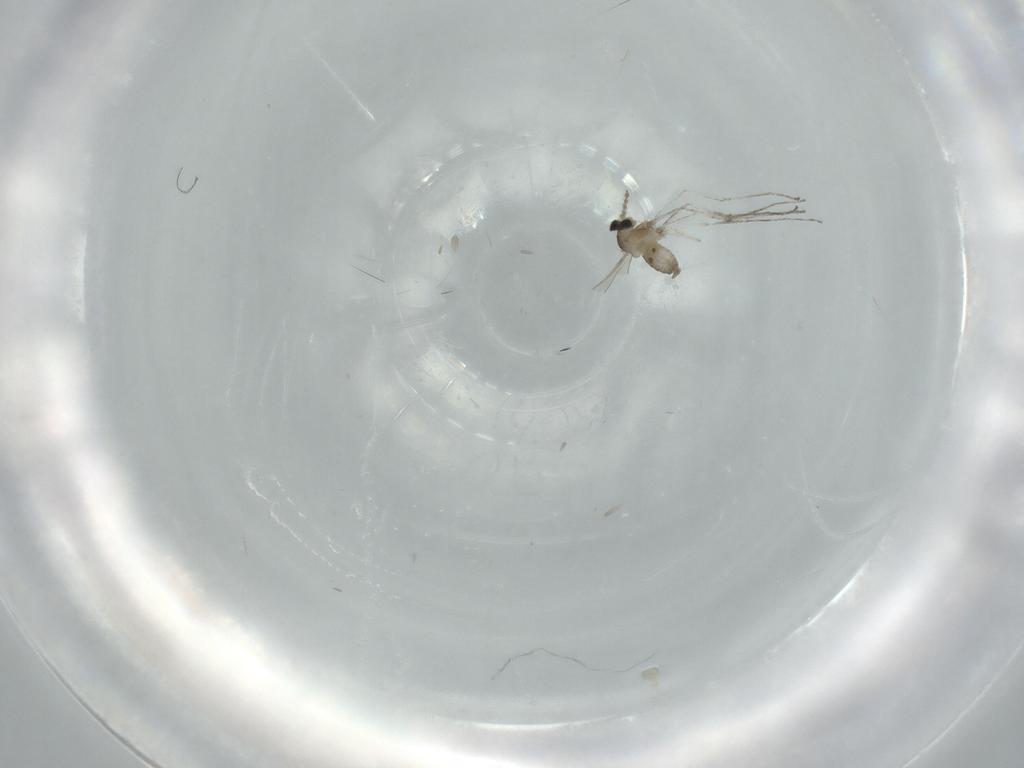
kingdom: Animalia
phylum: Arthropoda
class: Insecta
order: Diptera
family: Cecidomyiidae
